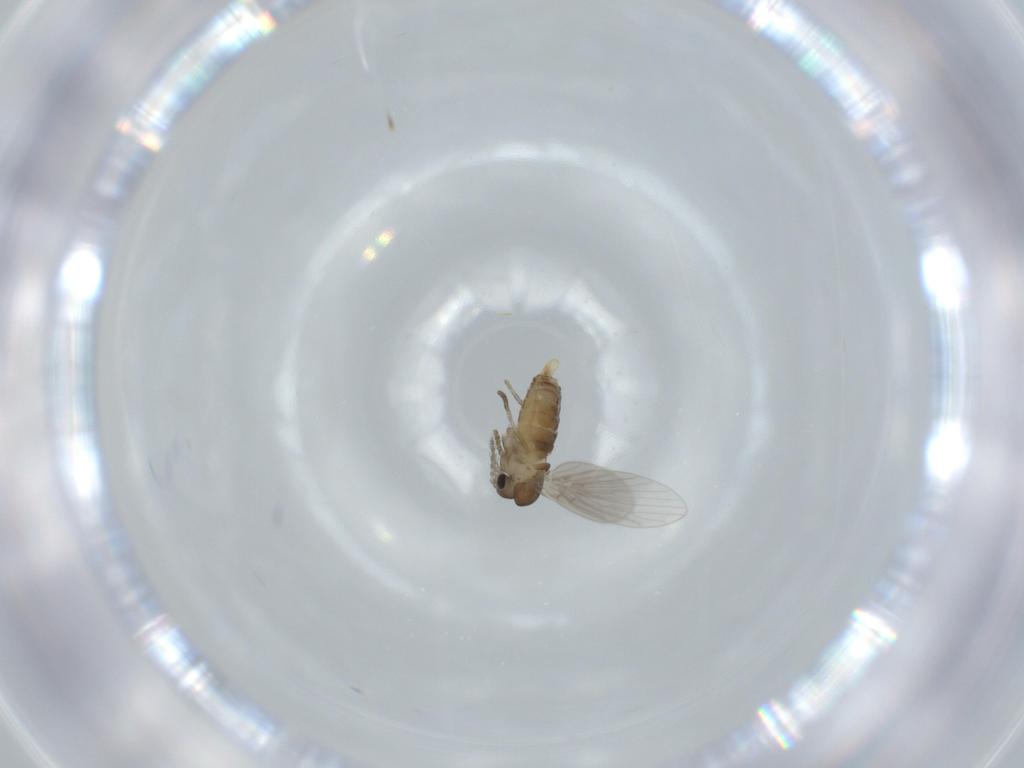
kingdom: Animalia
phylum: Arthropoda
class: Insecta
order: Diptera
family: Psychodidae
